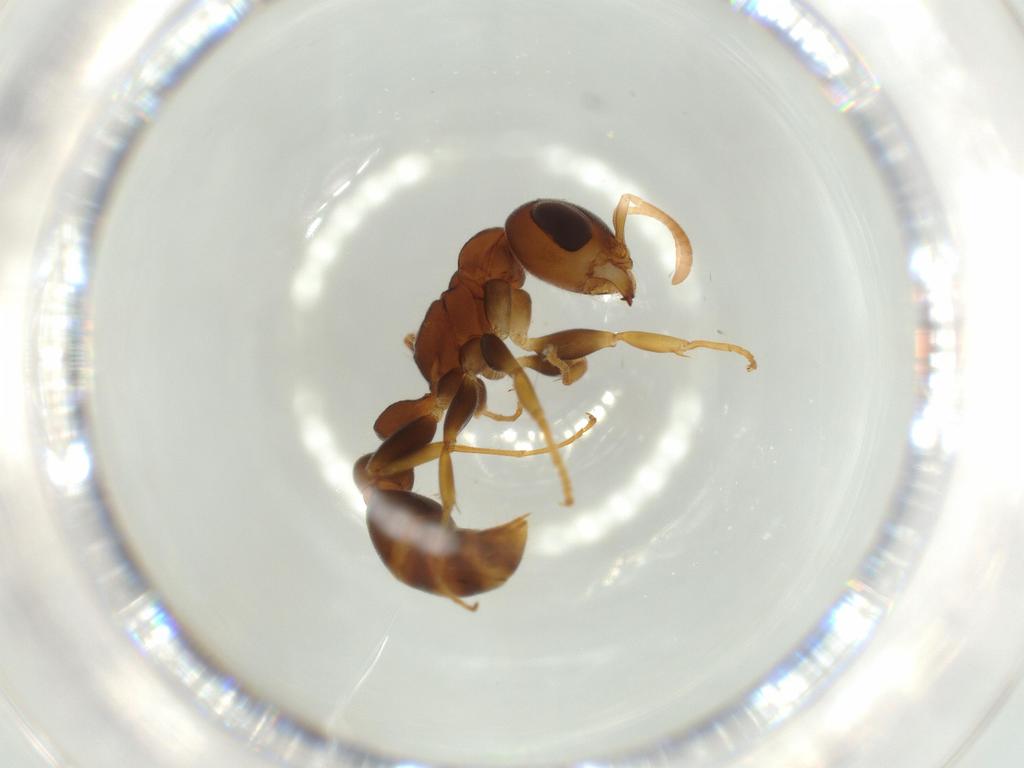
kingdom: Animalia
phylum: Arthropoda
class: Insecta
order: Hymenoptera
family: Formicidae
